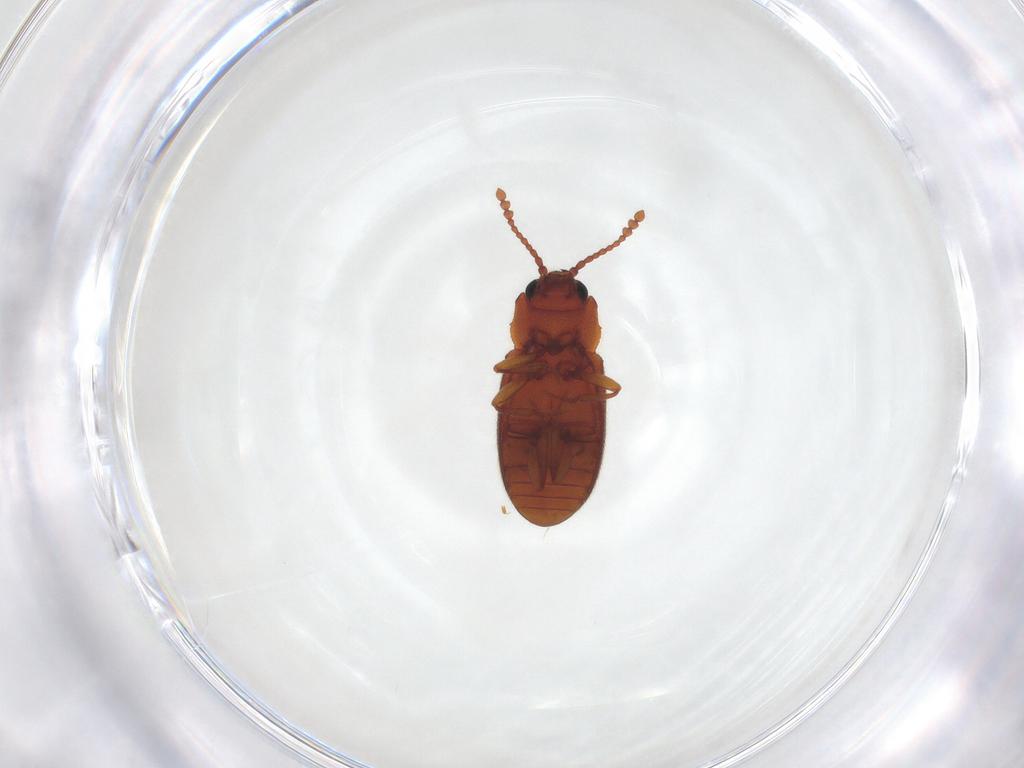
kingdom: Animalia
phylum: Arthropoda
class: Insecta
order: Coleoptera
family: Cryptophagidae
